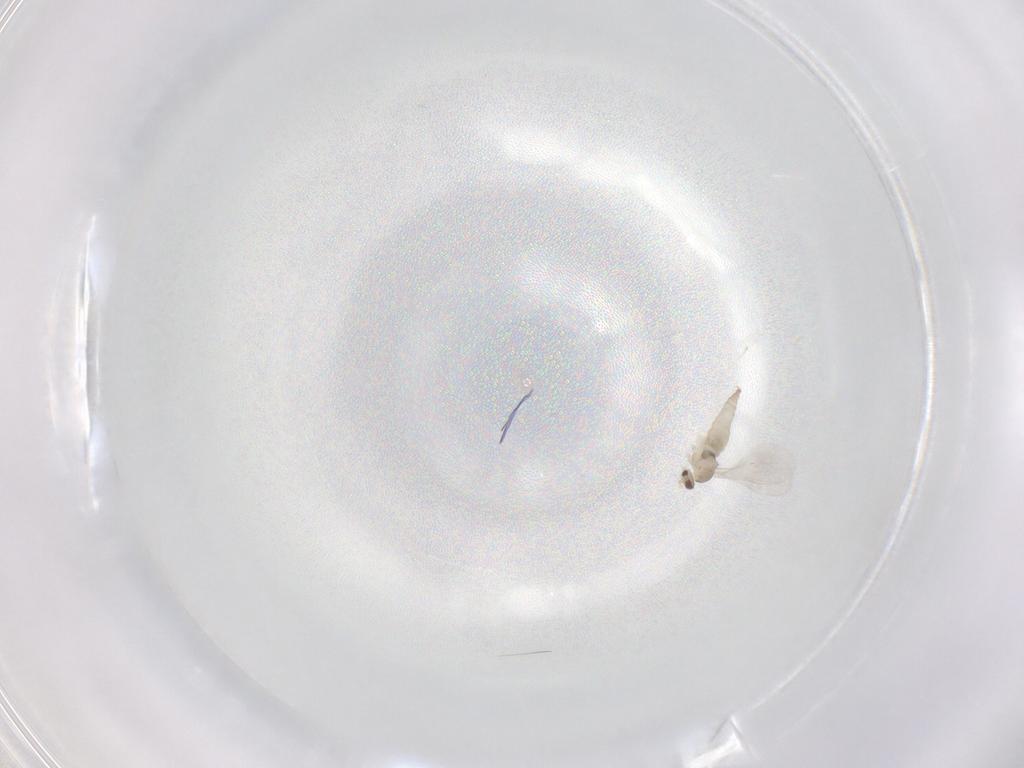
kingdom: Animalia
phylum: Arthropoda
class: Insecta
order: Diptera
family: Cecidomyiidae
